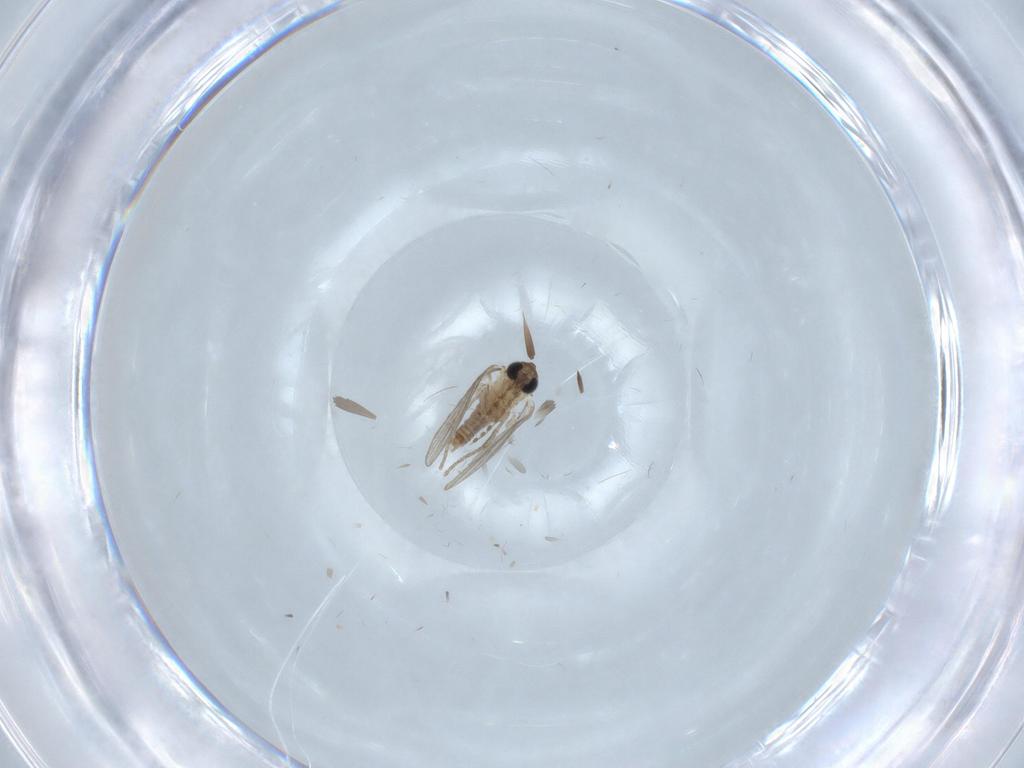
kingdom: Animalia
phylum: Arthropoda
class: Insecta
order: Diptera
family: Psychodidae
